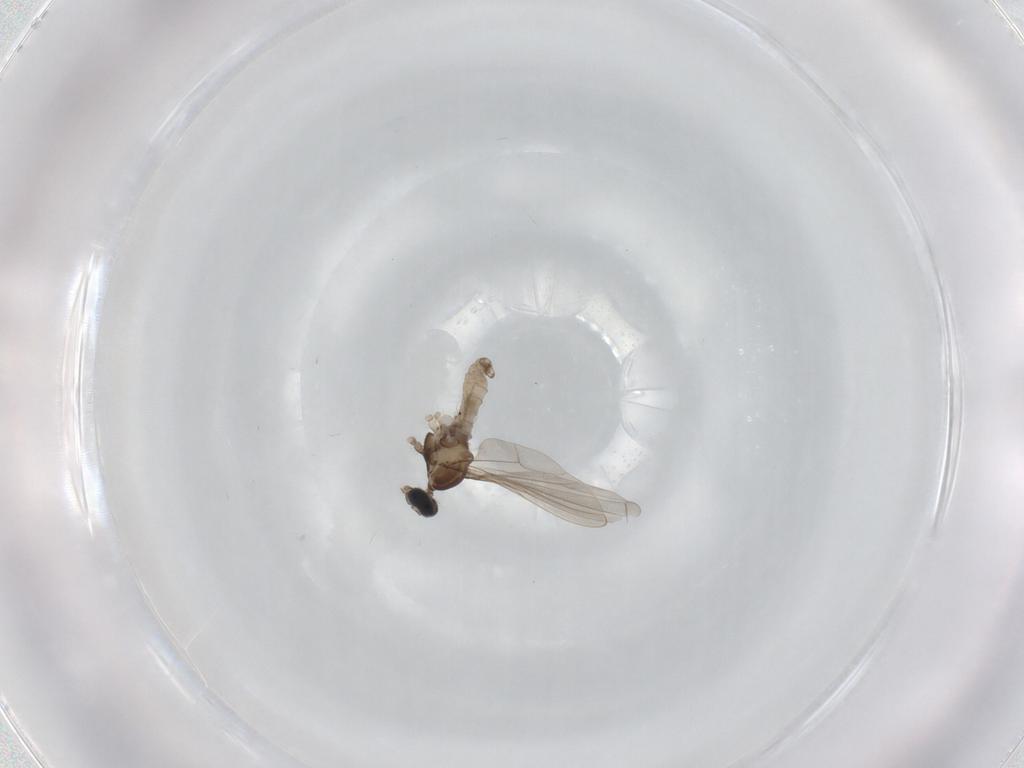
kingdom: Animalia
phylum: Arthropoda
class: Insecta
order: Diptera
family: Cecidomyiidae
